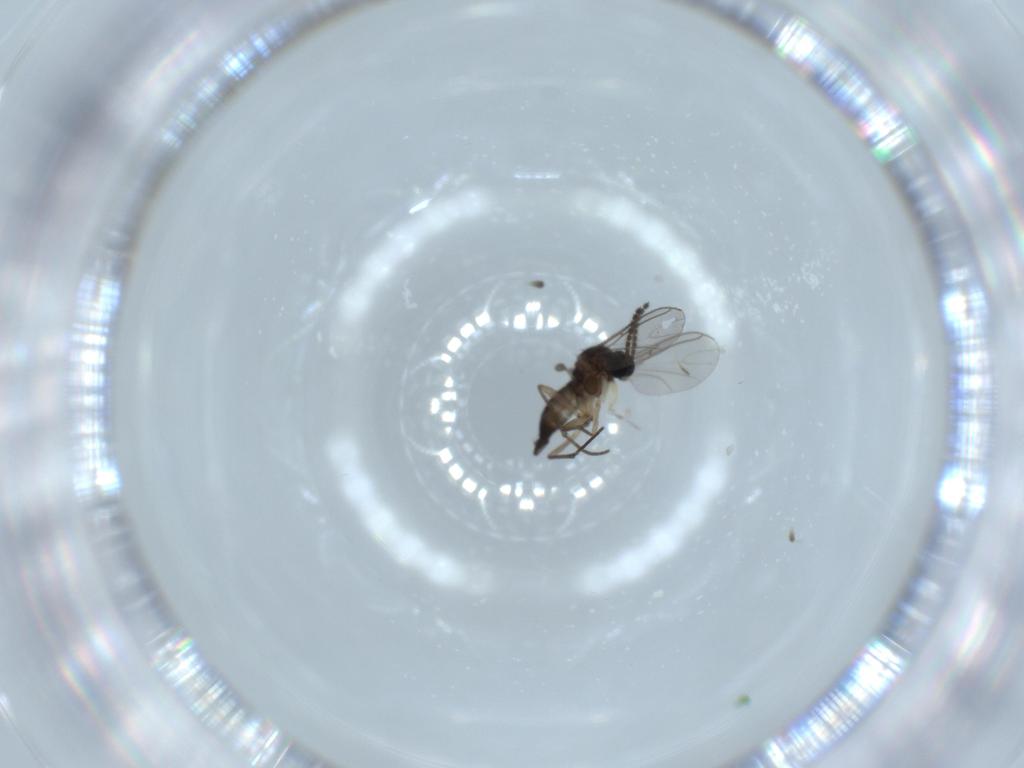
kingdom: Animalia
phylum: Arthropoda
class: Insecta
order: Diptera
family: Sciaridae
